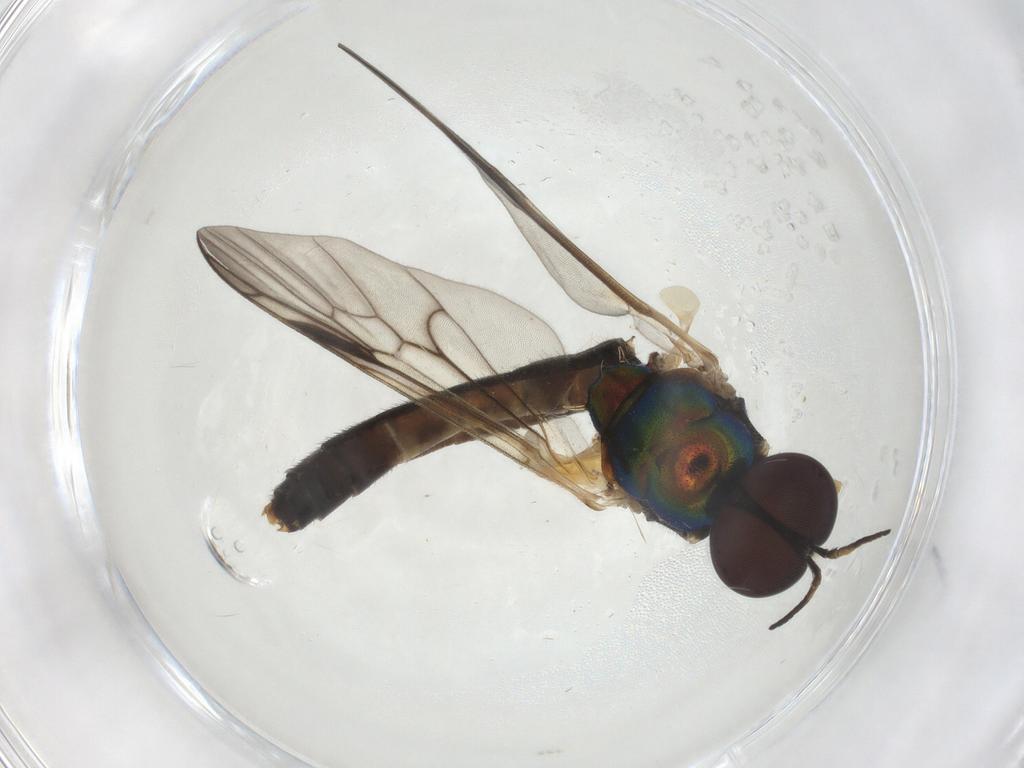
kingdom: Animalia
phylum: Arthropoda
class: Insecta
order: Diptera
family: Stratiomyidae
